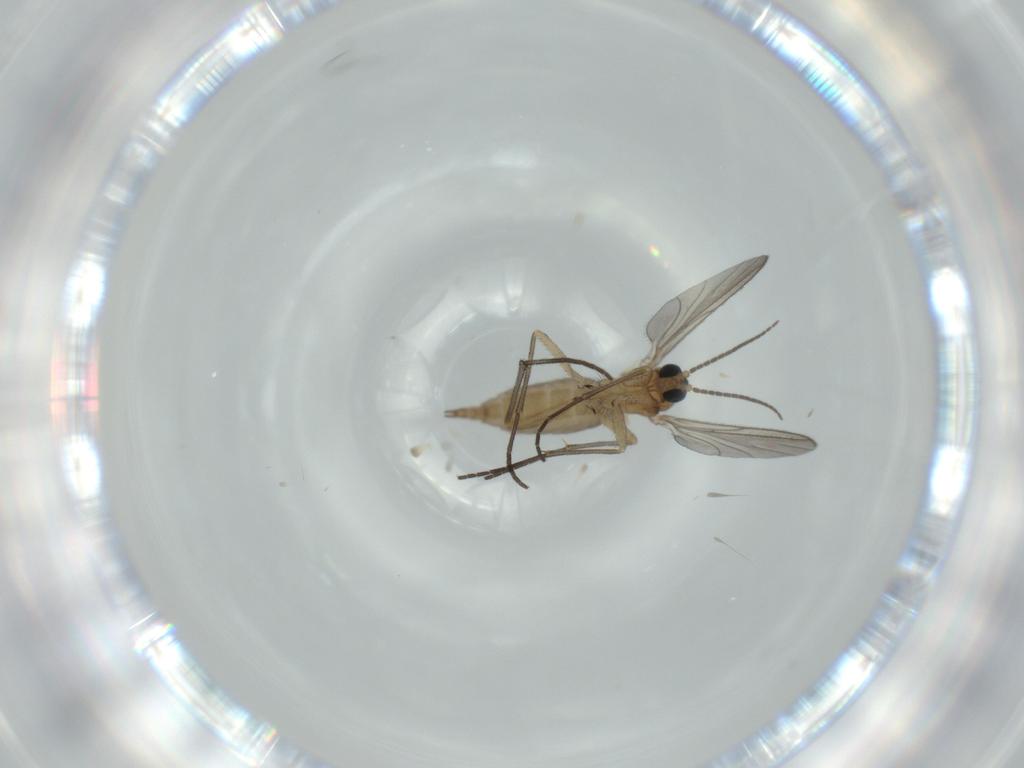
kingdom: Animalia
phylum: Arthropoda
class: Insecta
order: Diptera
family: Sciaridae
